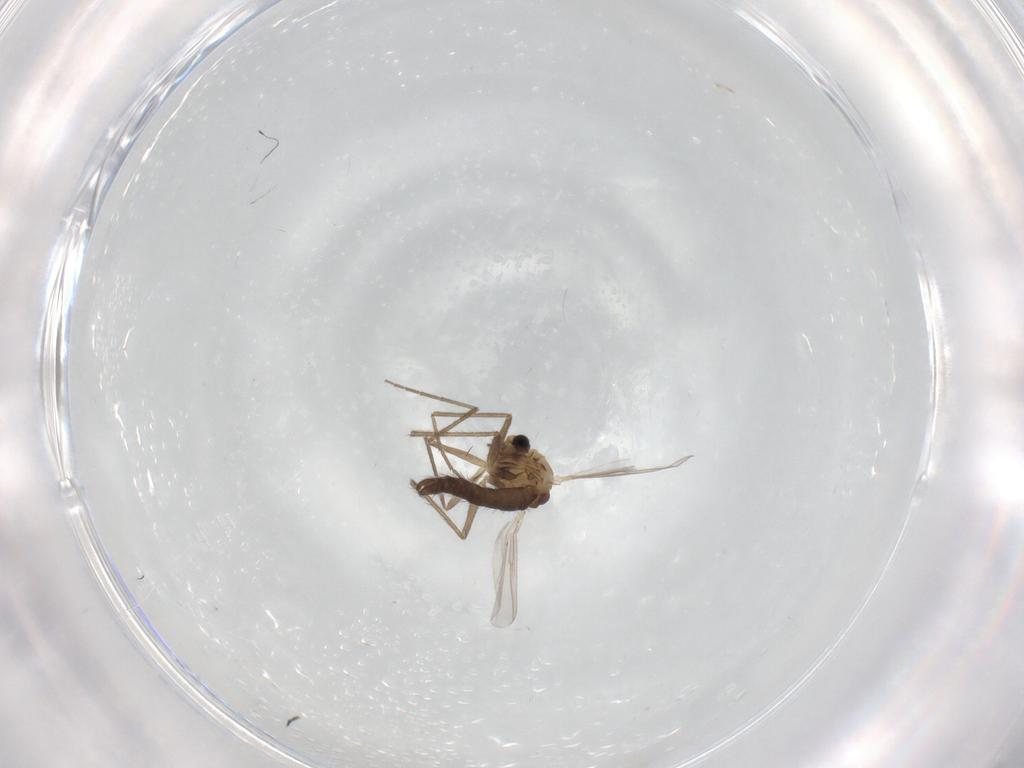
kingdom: Animalia
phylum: Arthropoda
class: Insecta
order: Diptera
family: Chironomidae
